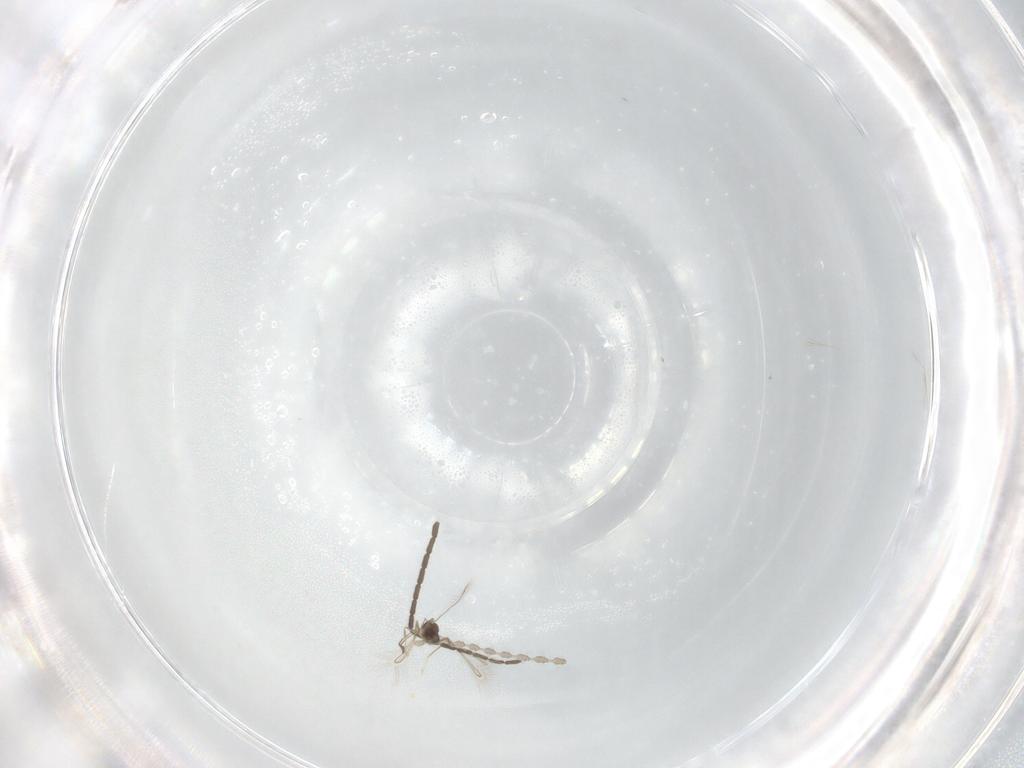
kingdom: Animalia
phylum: Arthropoda
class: Insecta
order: Hymenoptera
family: Encyrtidae
